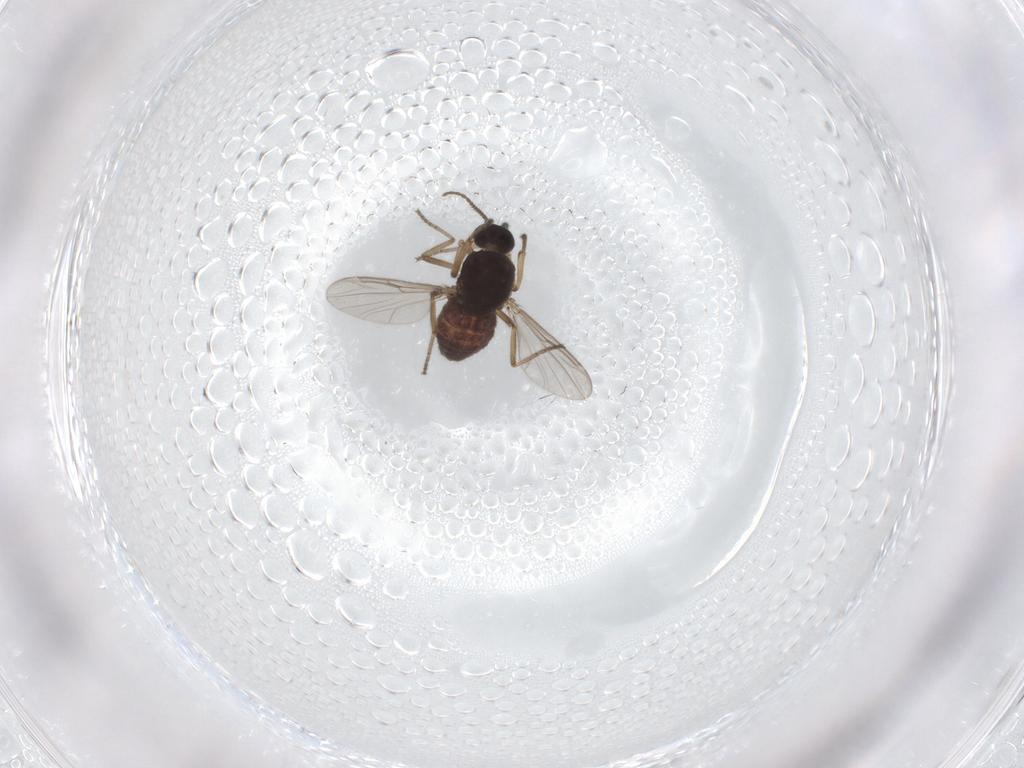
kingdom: Animalia
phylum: Arthropoda
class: Insecta
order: Diptera
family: Ceratopogonidae
